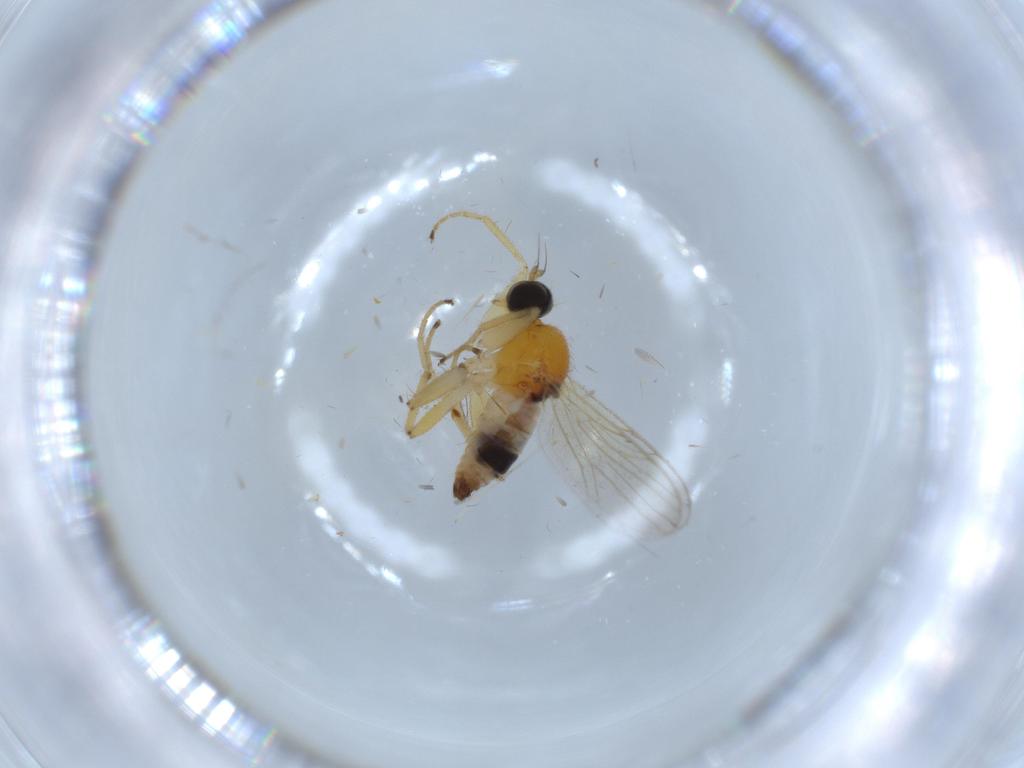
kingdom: Animalia
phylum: Arthropoda
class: Insecta
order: Diptera
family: Hybotidae
